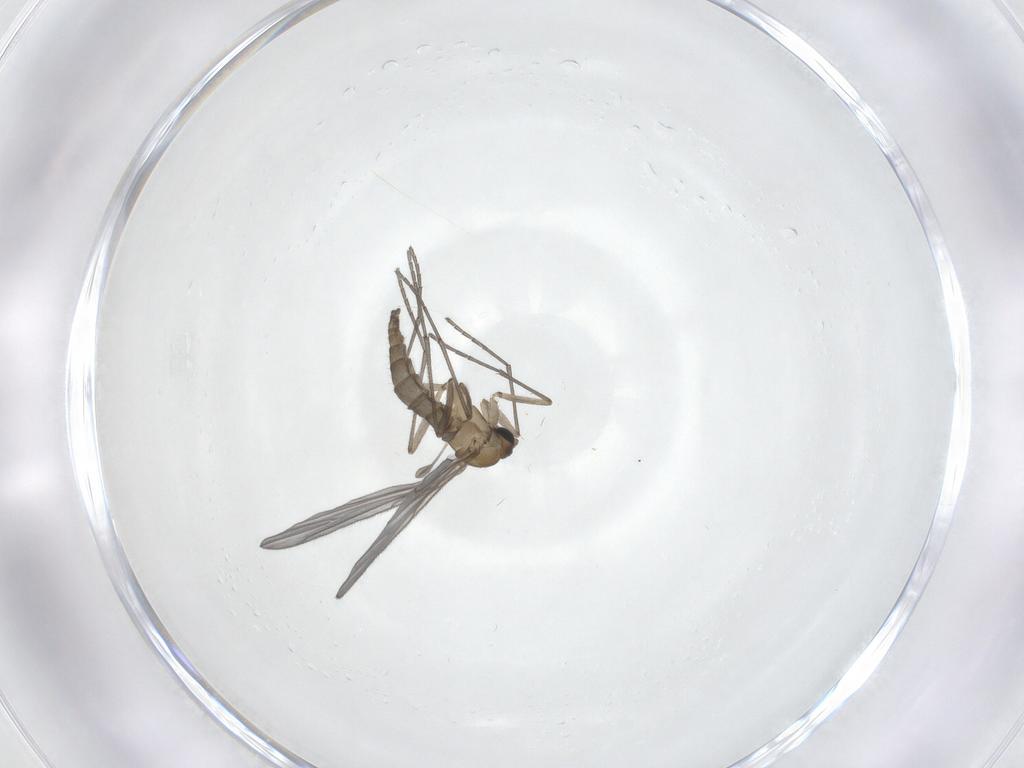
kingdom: Animalia
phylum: Arthropoda
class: Insecta
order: Diptera
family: Sciaridae
